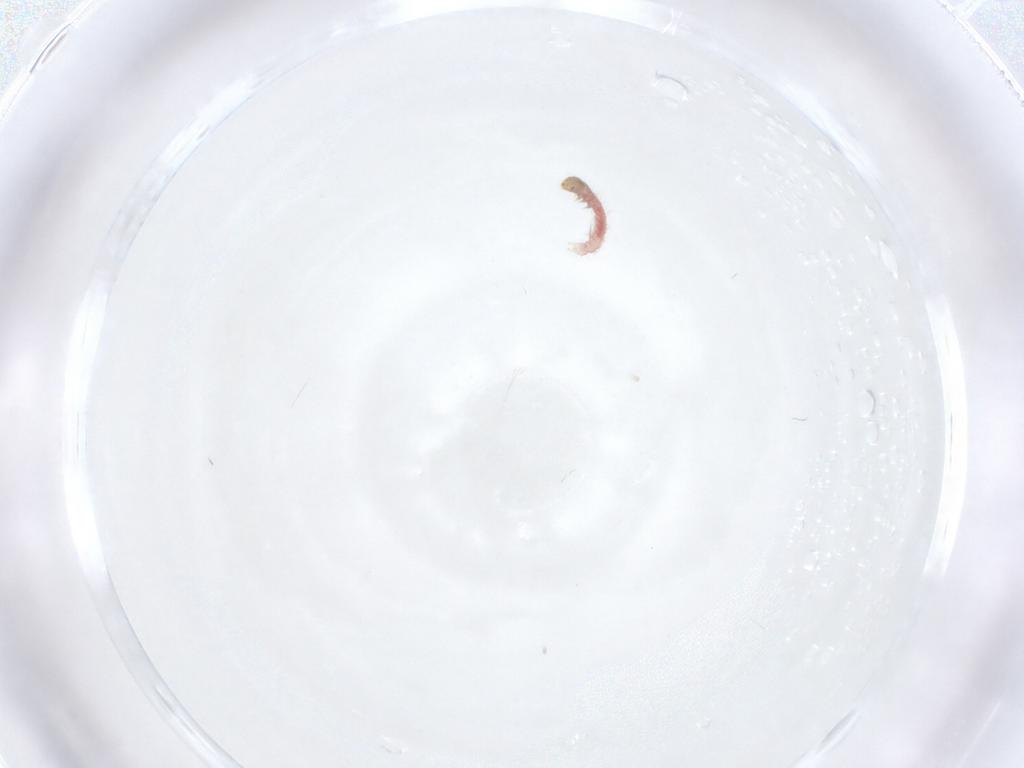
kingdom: Animalia
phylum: Arthropoda
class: Insecta
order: Lepidoptera
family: Xyloryctidae
